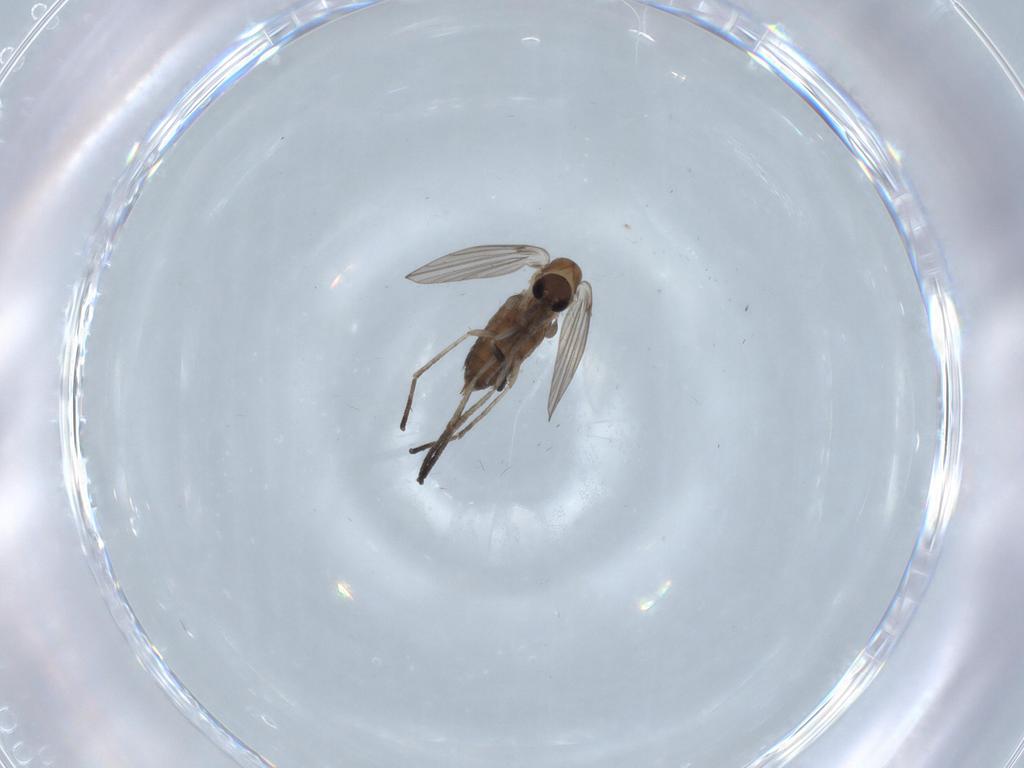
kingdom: Animalia
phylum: Arthropoda
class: Insecta
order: Diptera
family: Psychodidae
